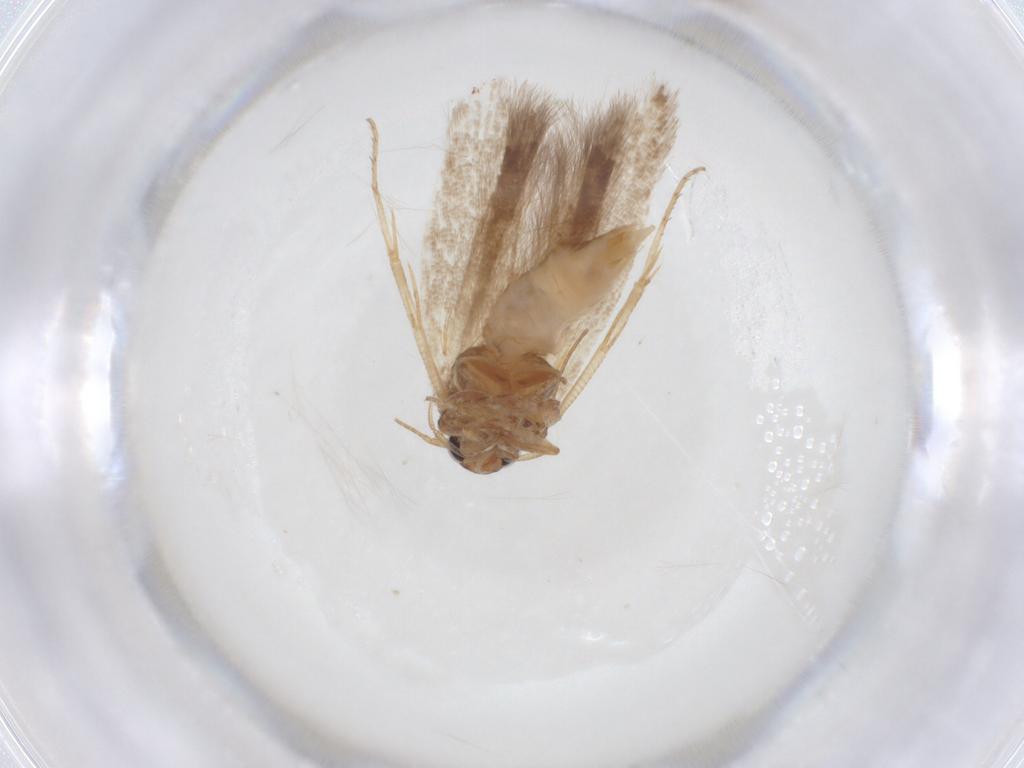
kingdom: Animalia
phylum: Arthropoda
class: Insecta
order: Lepidoptera
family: Gelechiidae
